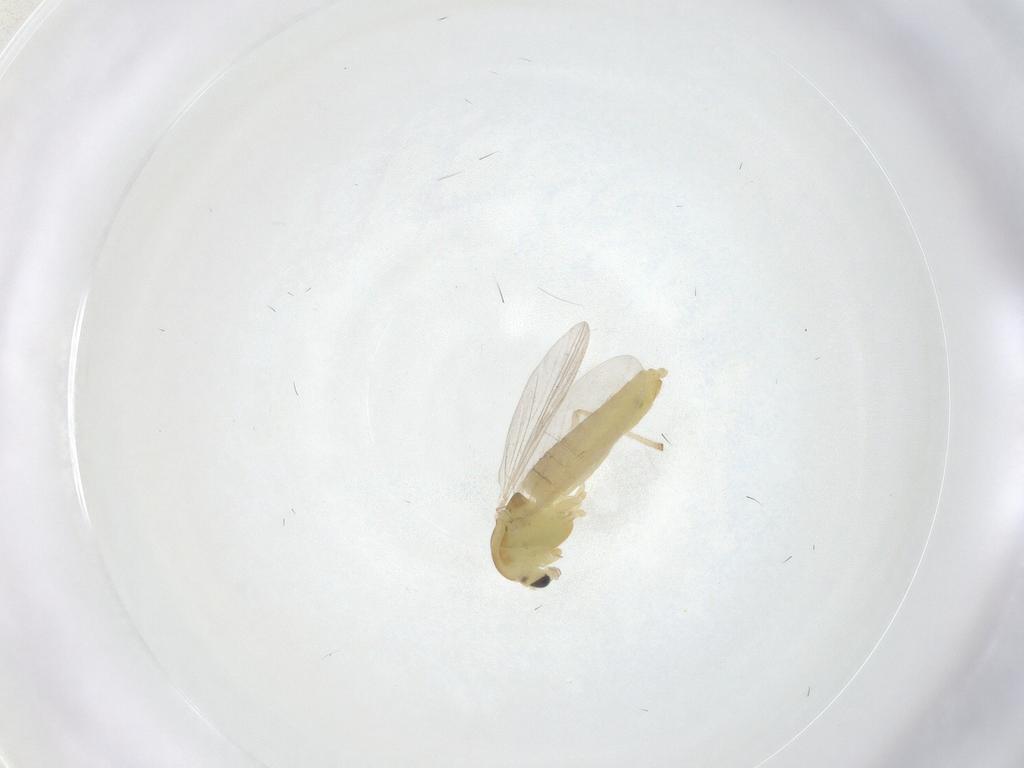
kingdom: Animalia
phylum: Arthropoda
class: Insecta
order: Diptera
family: Chironomidae
